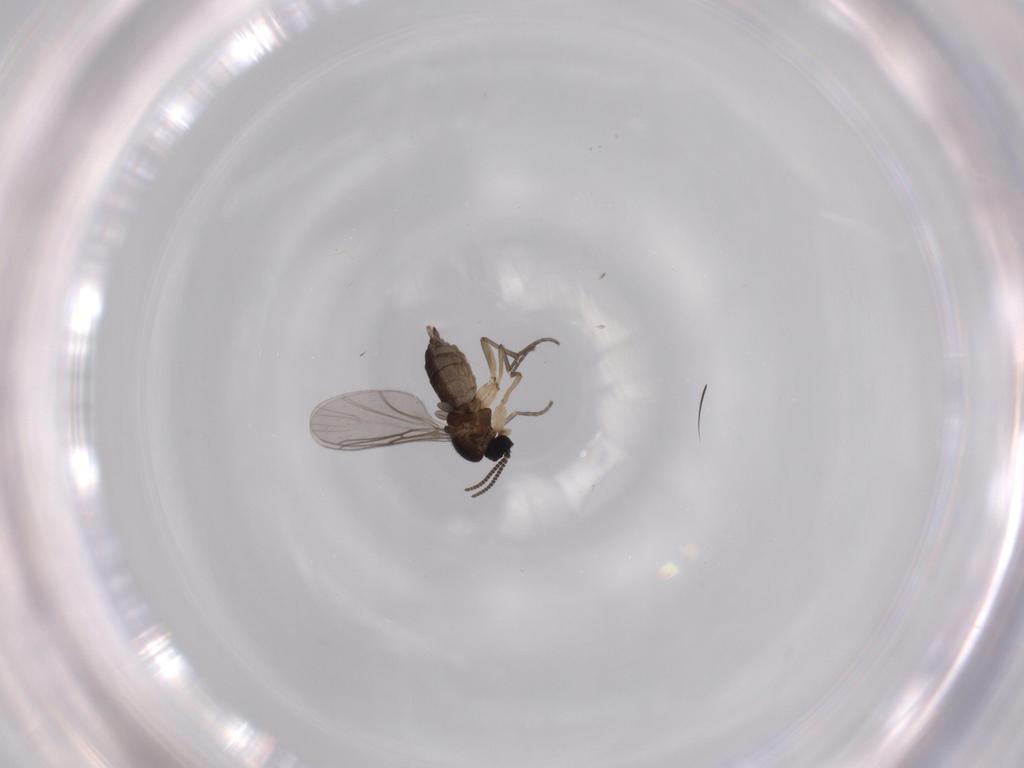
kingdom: Animalia
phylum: Arthropoda
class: Insecta
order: Diptera
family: Sciaridae
